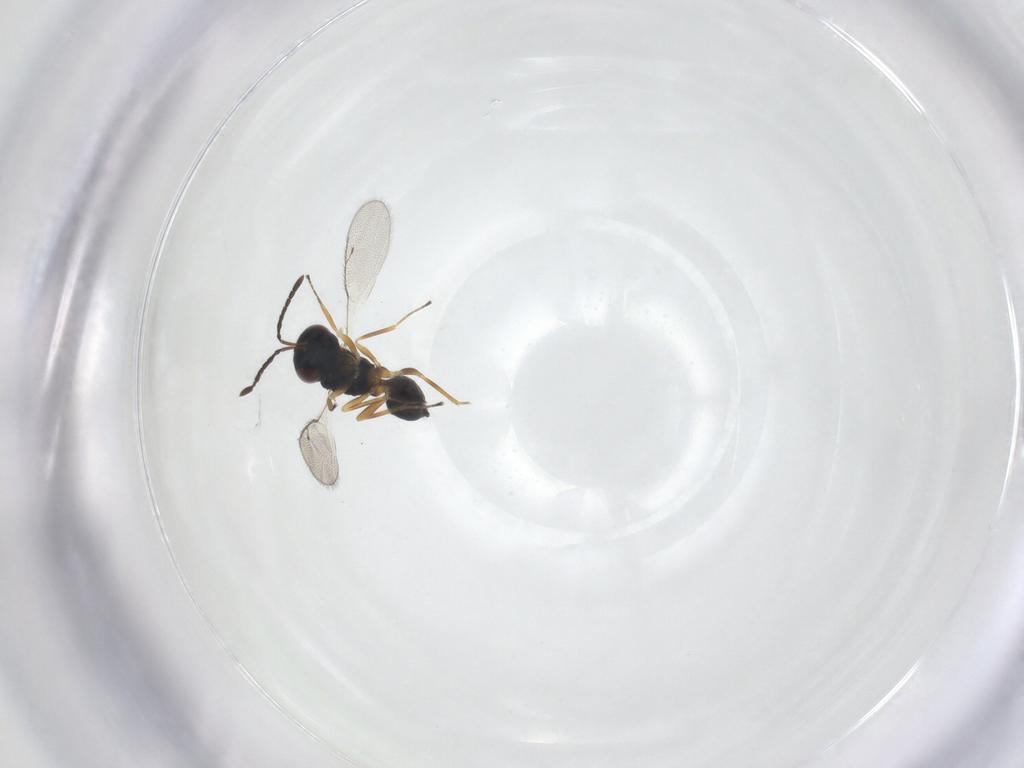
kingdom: Animalia
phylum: Arthropoda
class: Insecta
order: Hymenoptera
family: Pteromalidae
